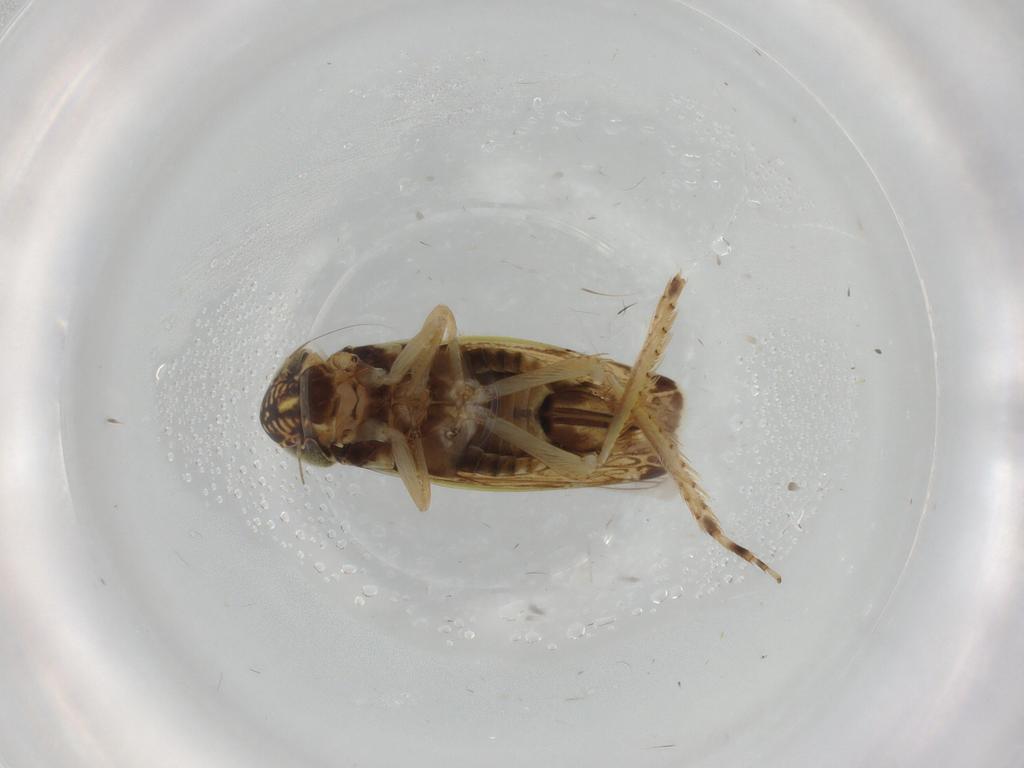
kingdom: Animalia
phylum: Arthropoda
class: Insecta
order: Hemiptera
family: Cicadellidae
